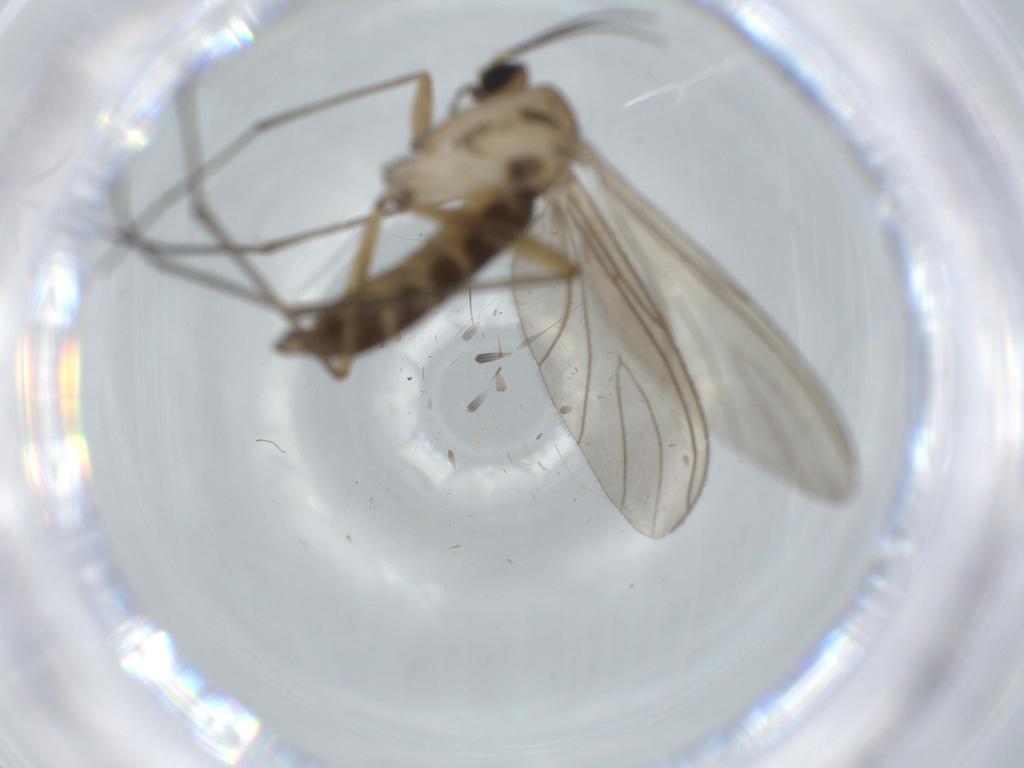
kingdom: Animalia
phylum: Arthropoda
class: Insecta
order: Diptera
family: Sciaridae
